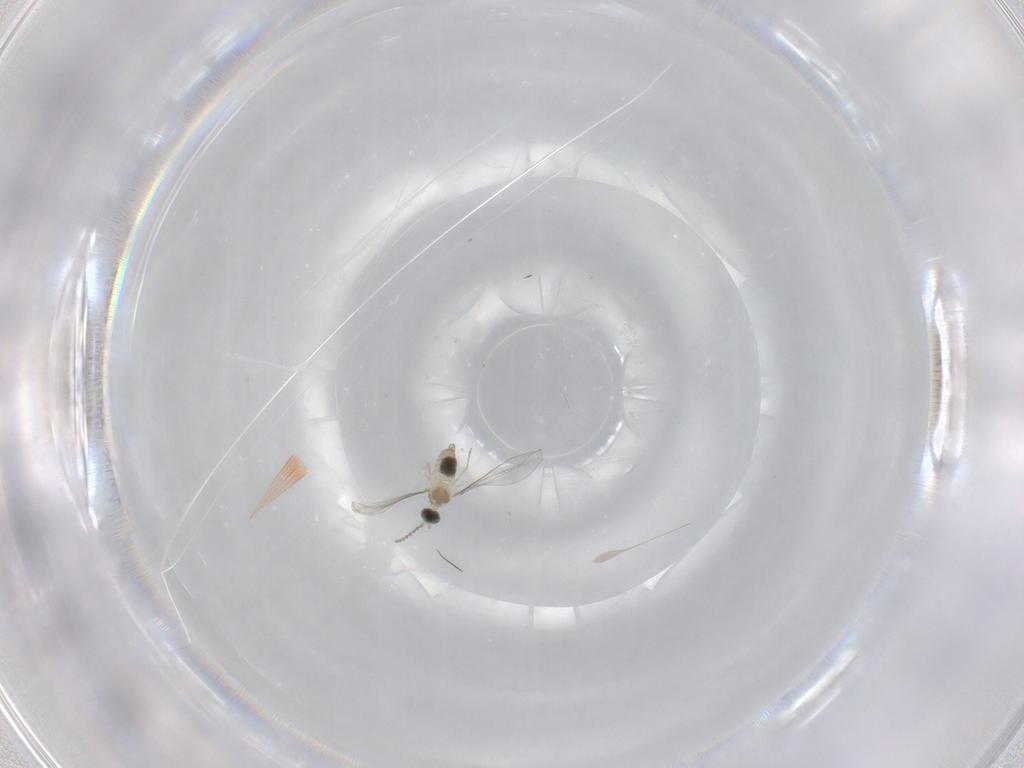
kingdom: Animalia
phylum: Arthropoda
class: Insecta
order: Diptera
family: Cecidomyiidae
